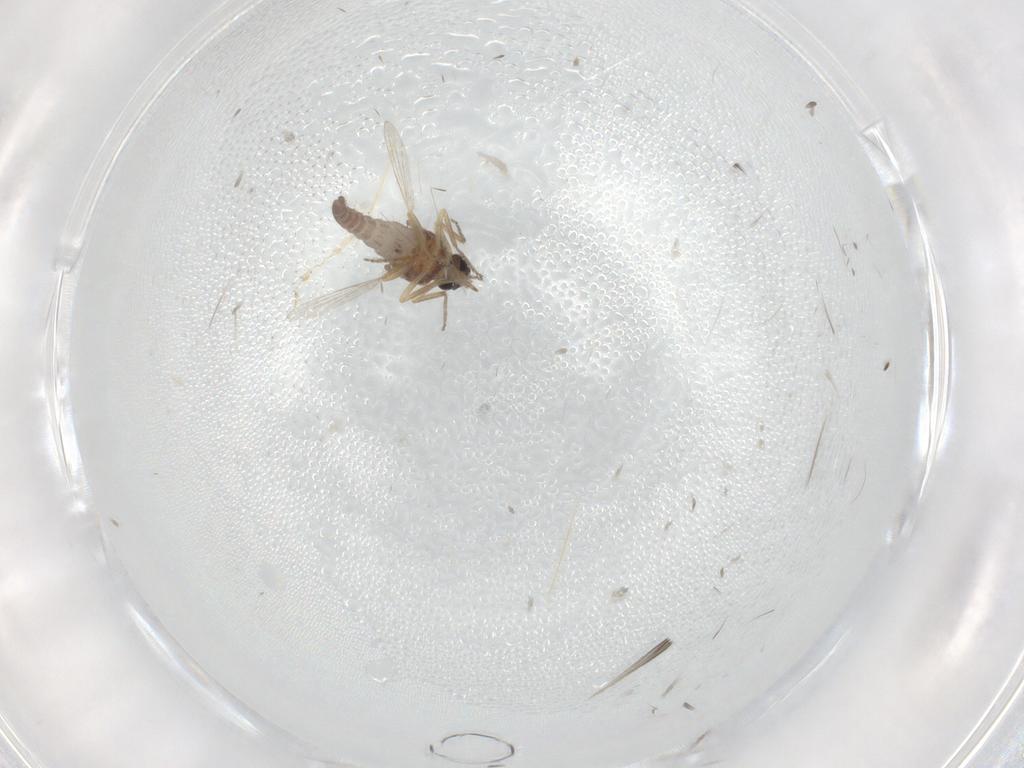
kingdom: Animalia
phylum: Arthropoda
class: Insecta
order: Diptera
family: Ceratopogonidae
